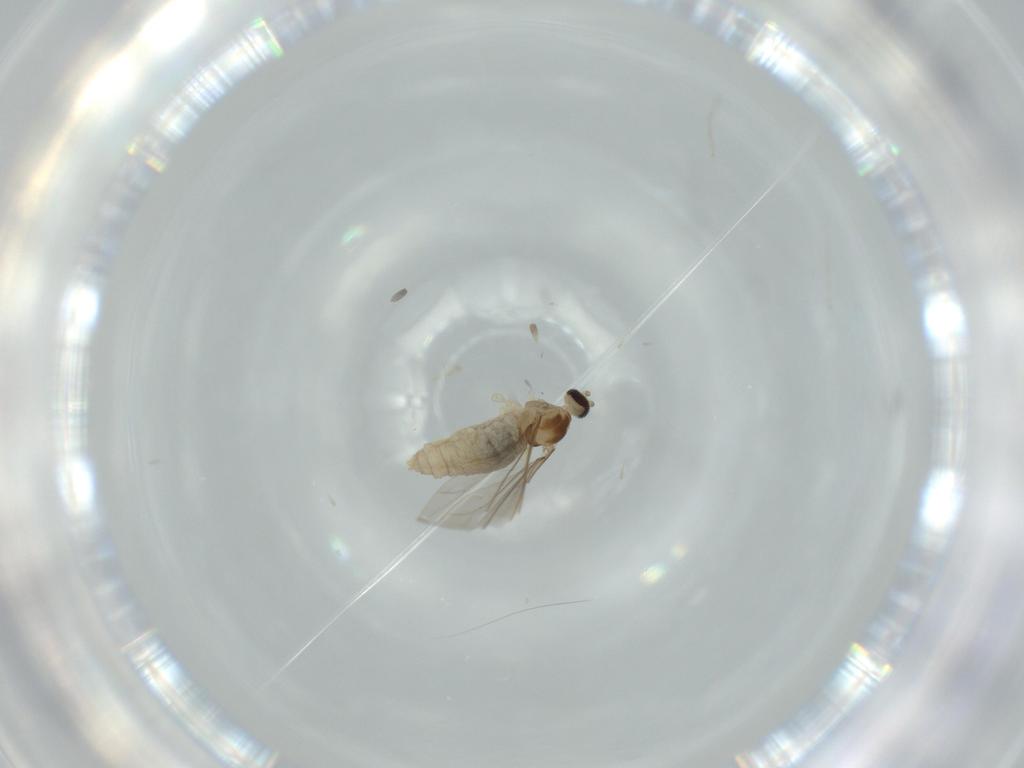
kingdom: Animalia
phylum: Arthropoda
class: Insecta
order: Diptera
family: Cecidomyiidae
